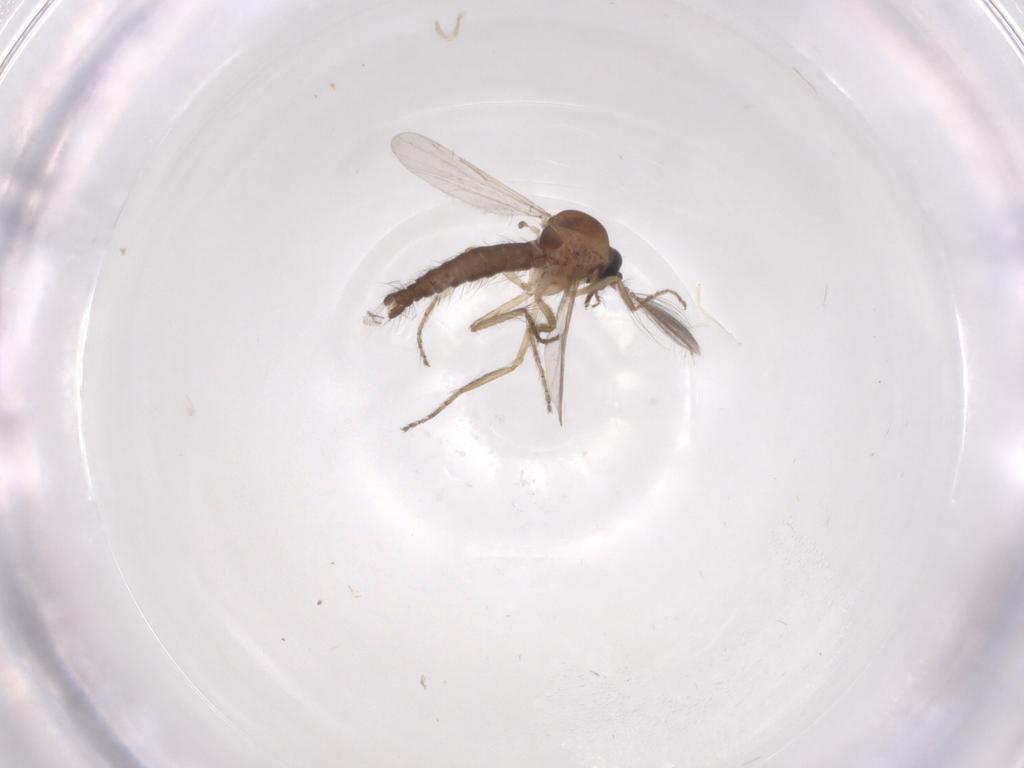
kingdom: Animalia
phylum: Arthropoda
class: Insecta
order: Diptera
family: Ceratopogonidae
